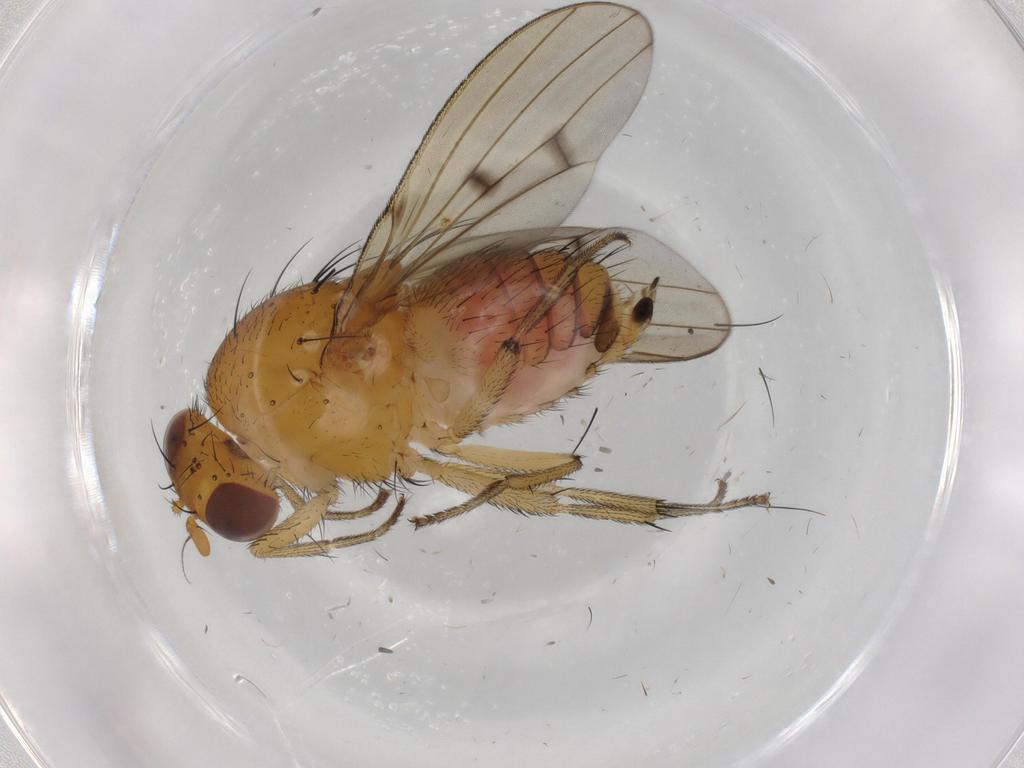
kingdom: Animalia
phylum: Arthropoda
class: Insecta
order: Diptera
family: Cecidomyiidae
